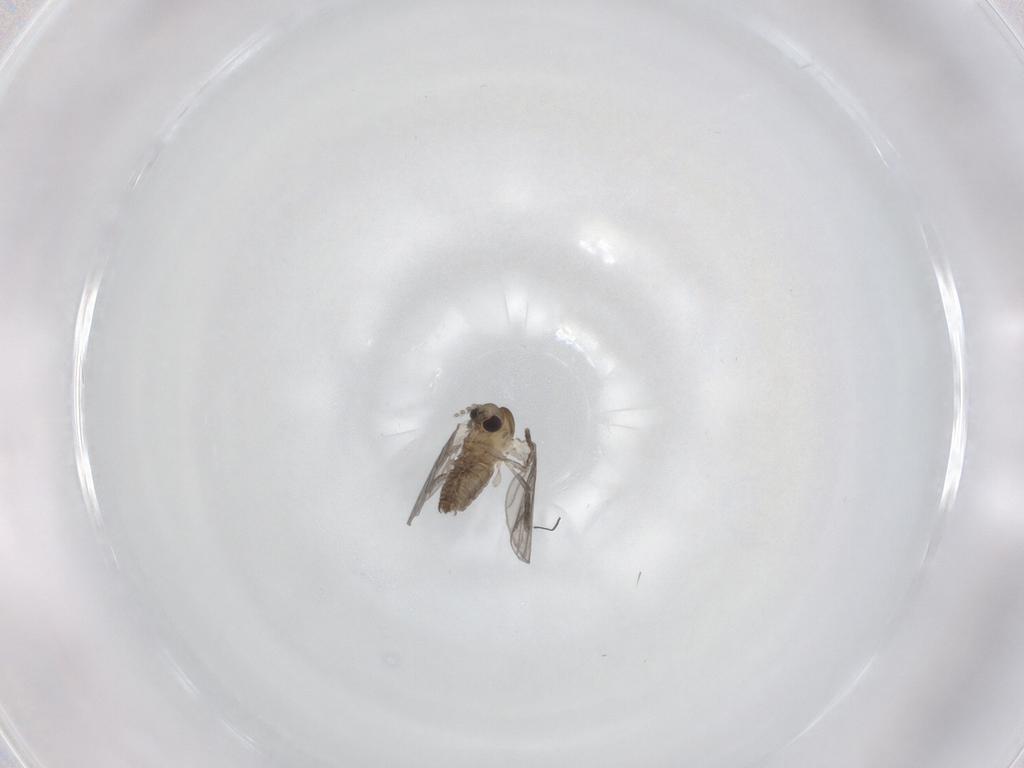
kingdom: Animalia
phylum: Arthropoda
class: Insecta
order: Diptera
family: Psychodidae
